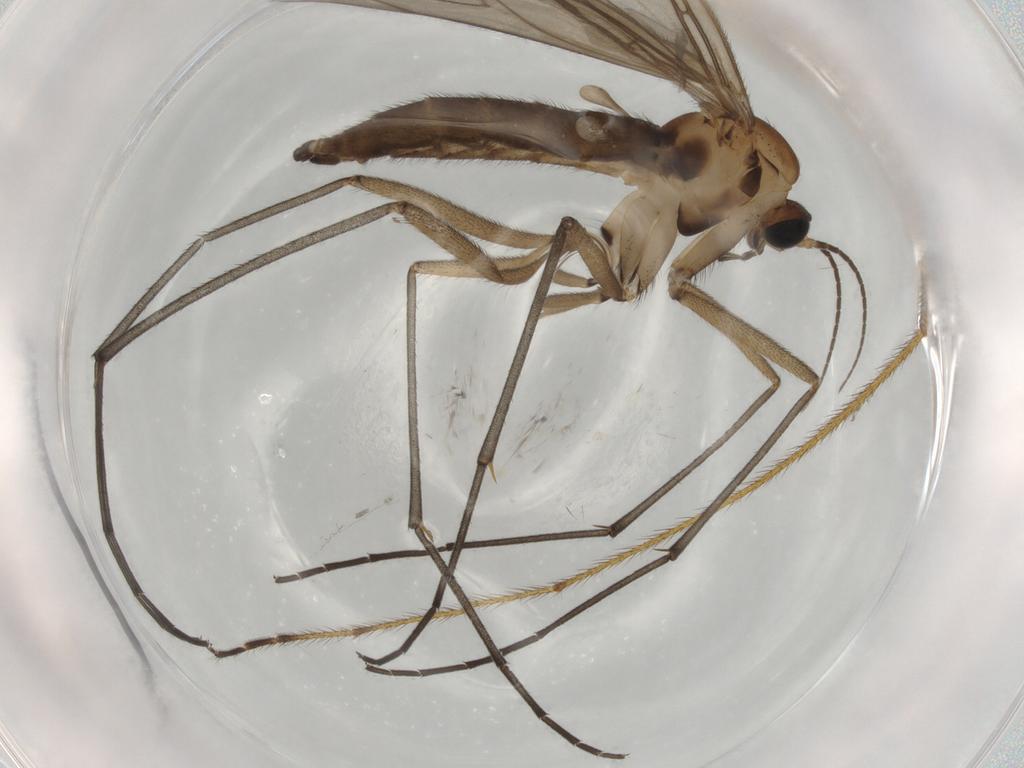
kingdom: Animalia
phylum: Arthropoda
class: Insecta
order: Diptera
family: Sciaridae
